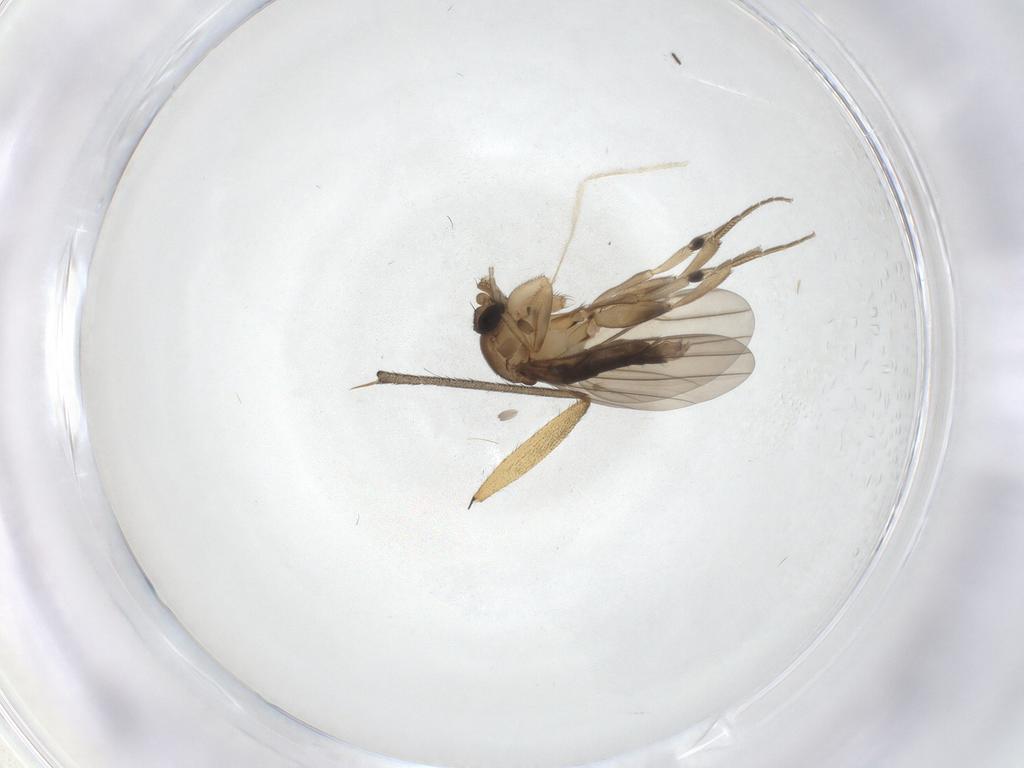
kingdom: Animalia
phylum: Arthropoda
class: Insecta
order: Diptera
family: Sciaridae
